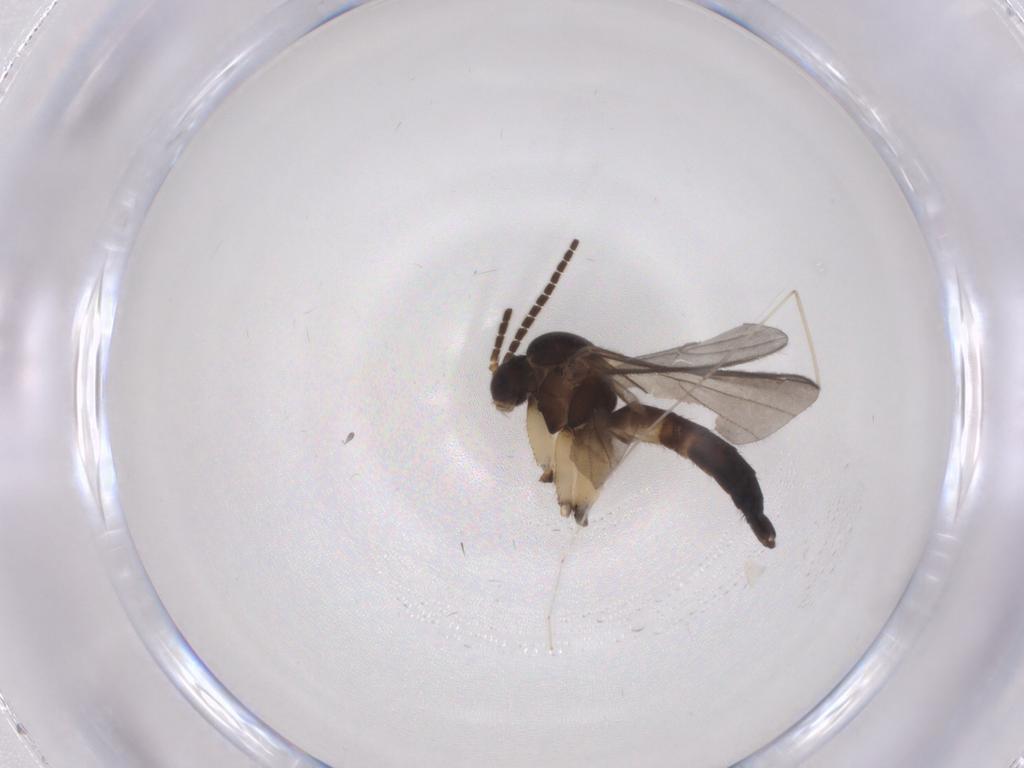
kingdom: Animalia
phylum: Arthropoda
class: Insecta
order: Diptera
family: Mycetophilidae
